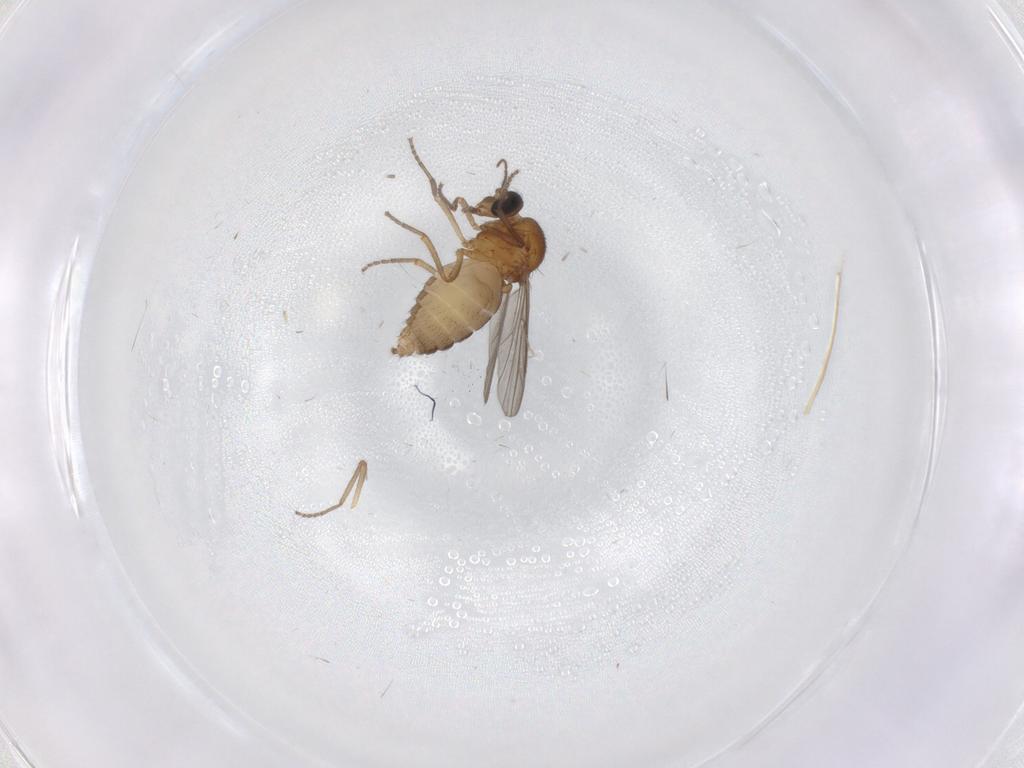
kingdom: Animalia
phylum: Arthropoda
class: Insecta
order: Diptera
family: Ceratopogonidae
